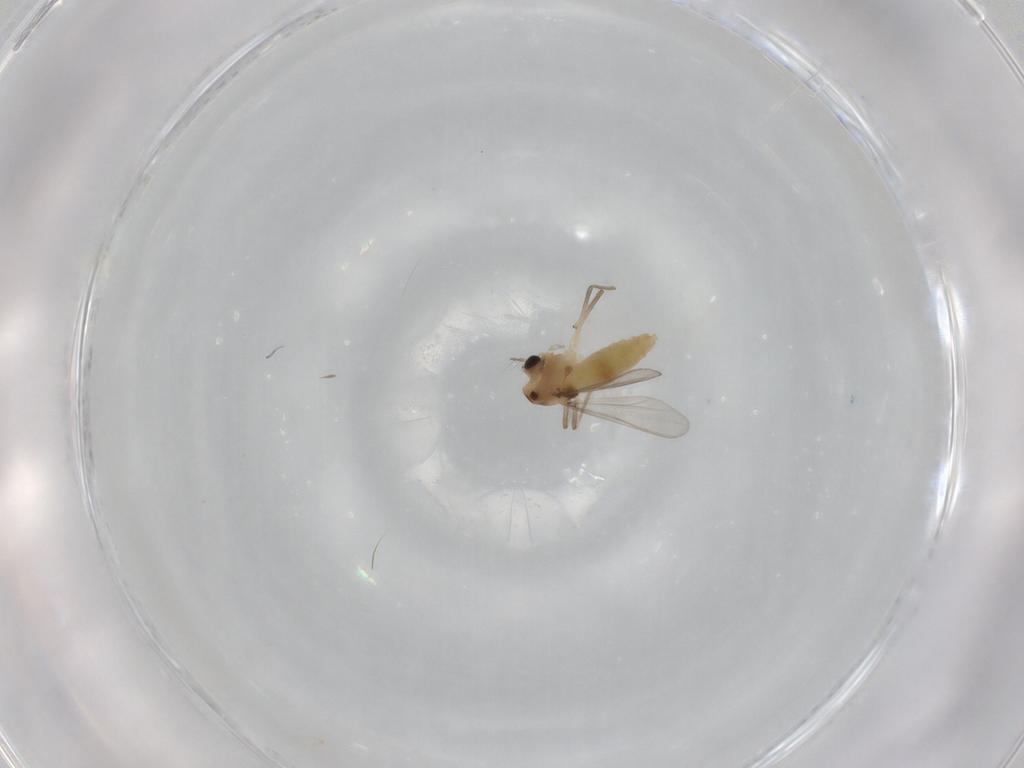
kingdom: Animalia
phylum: Arthropoda
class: Insecta
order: Diptera
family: Chironomidae
